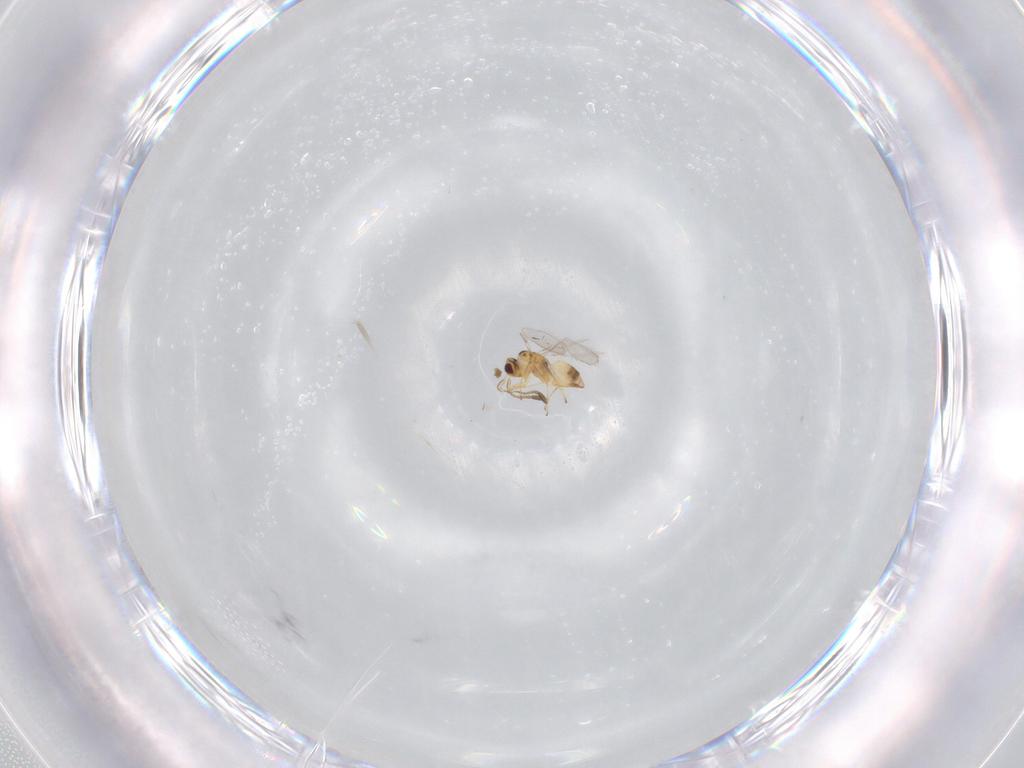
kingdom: Animalia
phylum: Arthropoda
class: Insecta
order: Hymenoptera
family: Mymaridae
